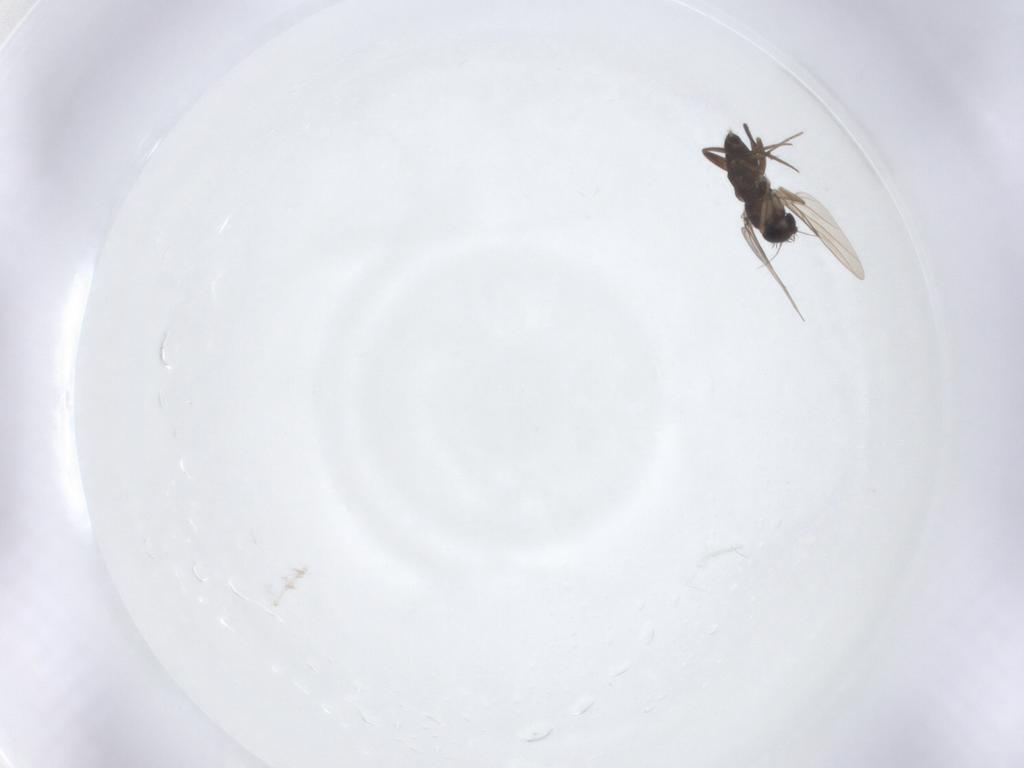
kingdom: Animalia
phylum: Arthropoda
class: Insecta
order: Diptera
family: Phoridae
